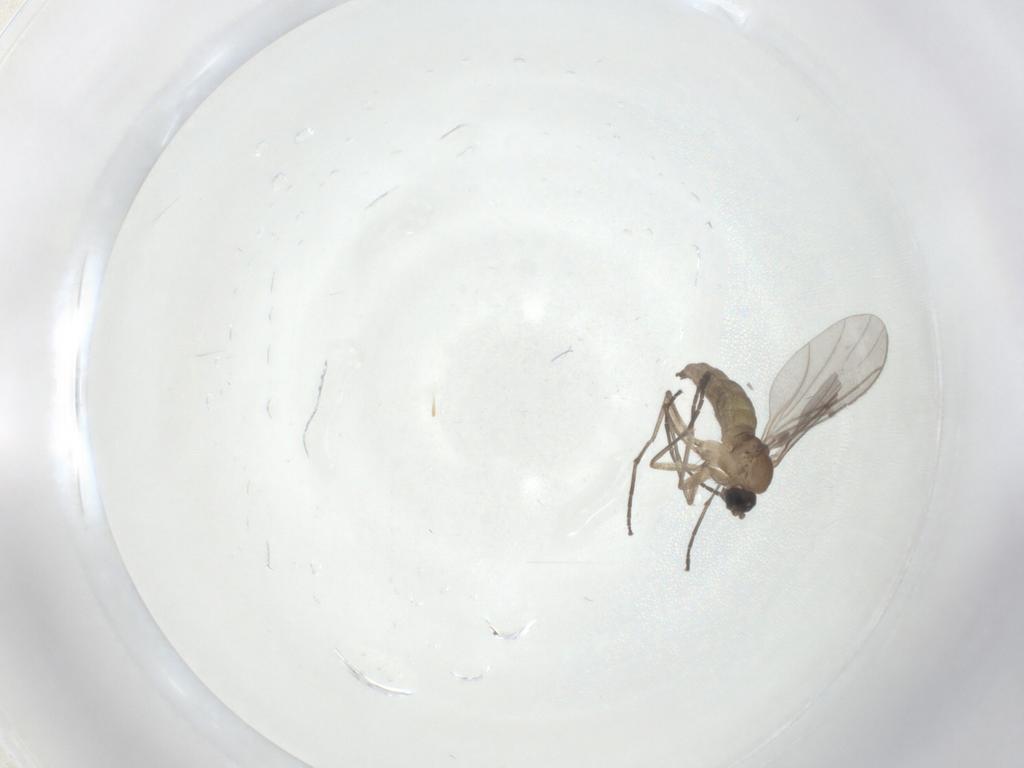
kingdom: Animalia
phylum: Arthropoda
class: Insecta
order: Diptera
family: Sciaridae
